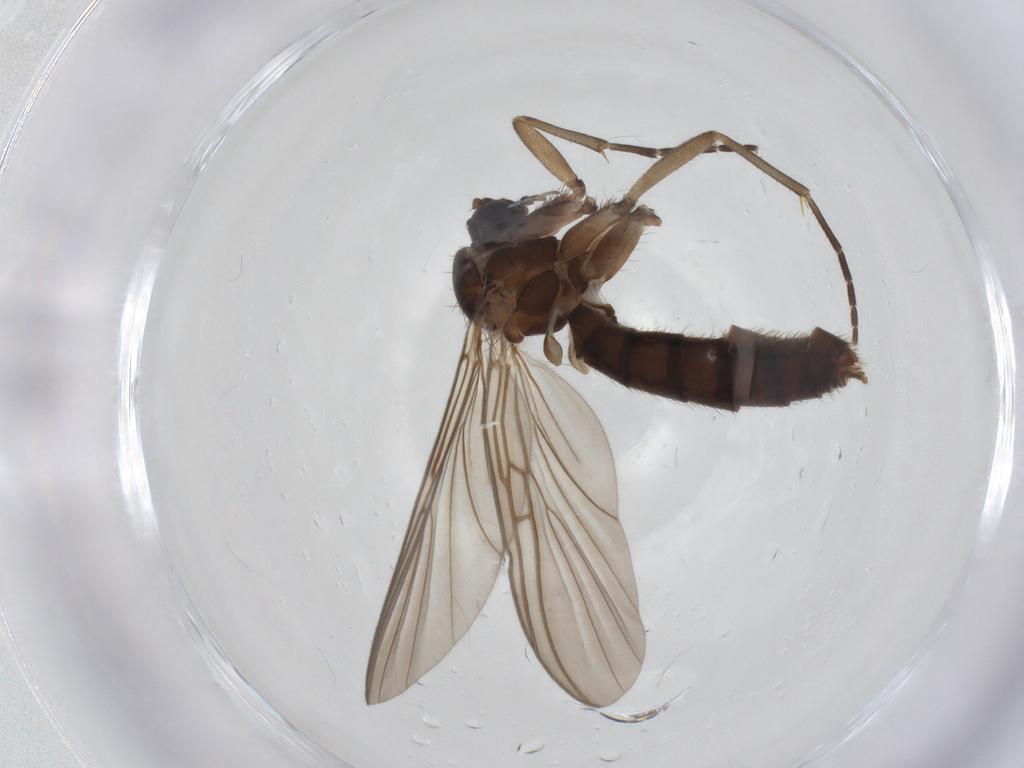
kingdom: Animalia
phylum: Arthropoda
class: Insecta
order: Diptera
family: Mycetophilidae
